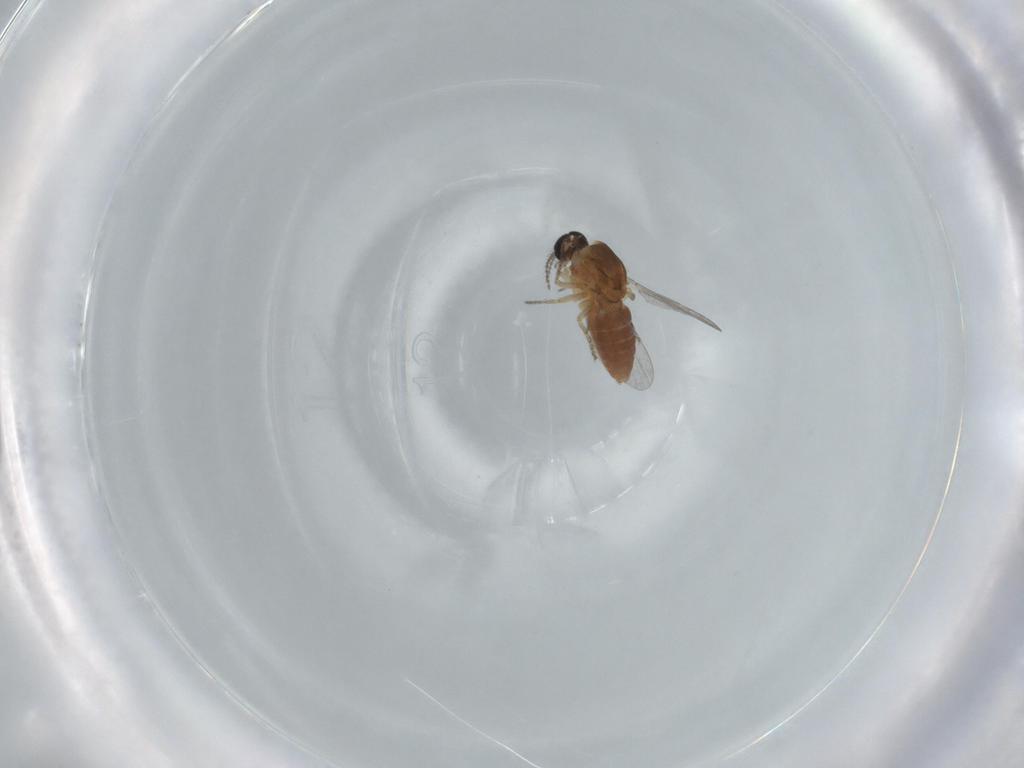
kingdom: Animalia
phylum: Arthropoda
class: Insecta
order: Diptera
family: Ceratopogonidae
